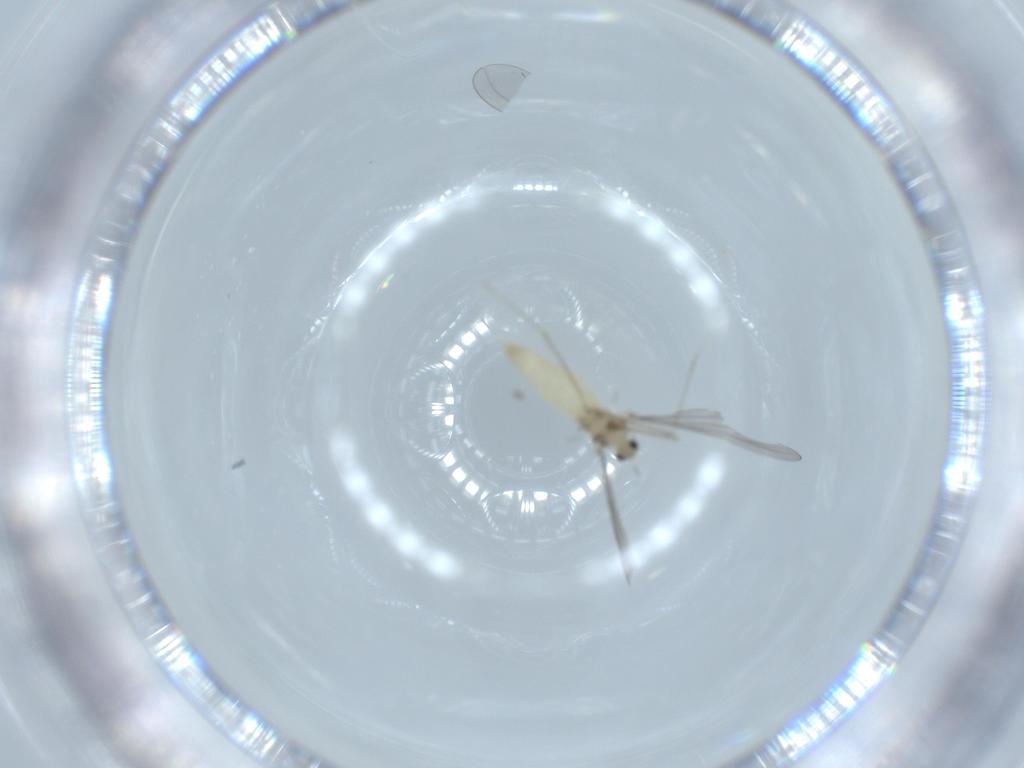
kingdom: Animalia
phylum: Arthropoda
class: Insecta
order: Diptera
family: Cecidomyiidae
